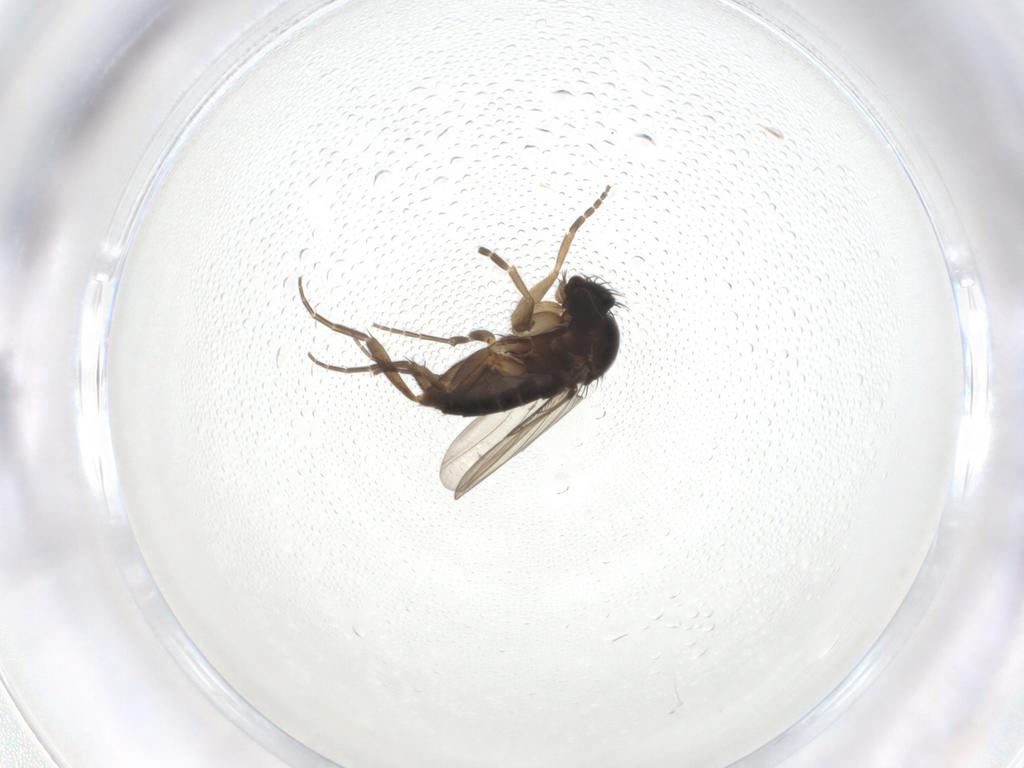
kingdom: Animalia
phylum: Arthropoda
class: Insecta
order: Diptera
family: Phoridae
